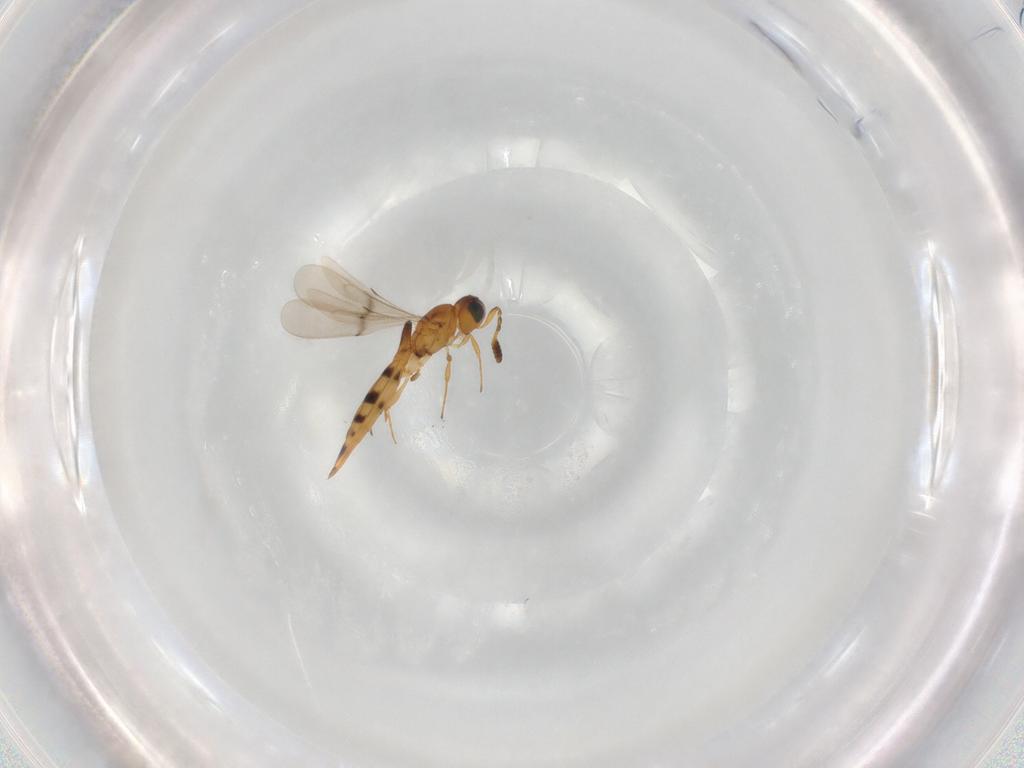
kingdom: Animalia
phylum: Arthropoda
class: Insecta
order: Hymenoptera
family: Scelionidae
